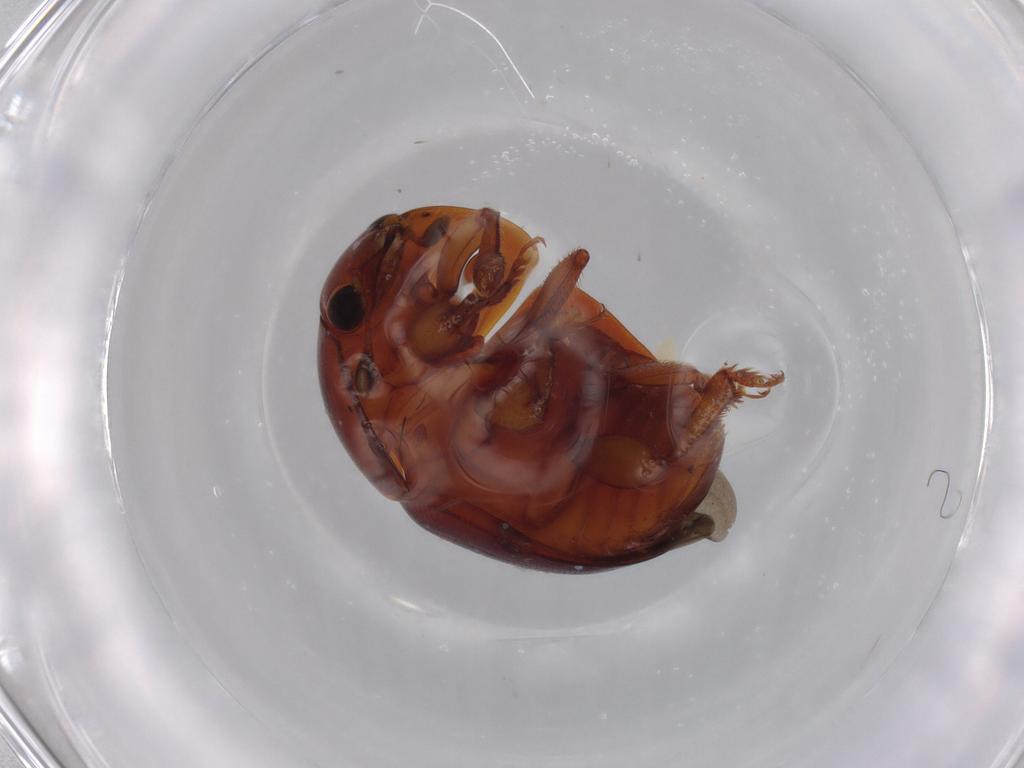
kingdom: Animalia
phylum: Arthropoda
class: Insecta
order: Coleoptera
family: Nitidulidae
